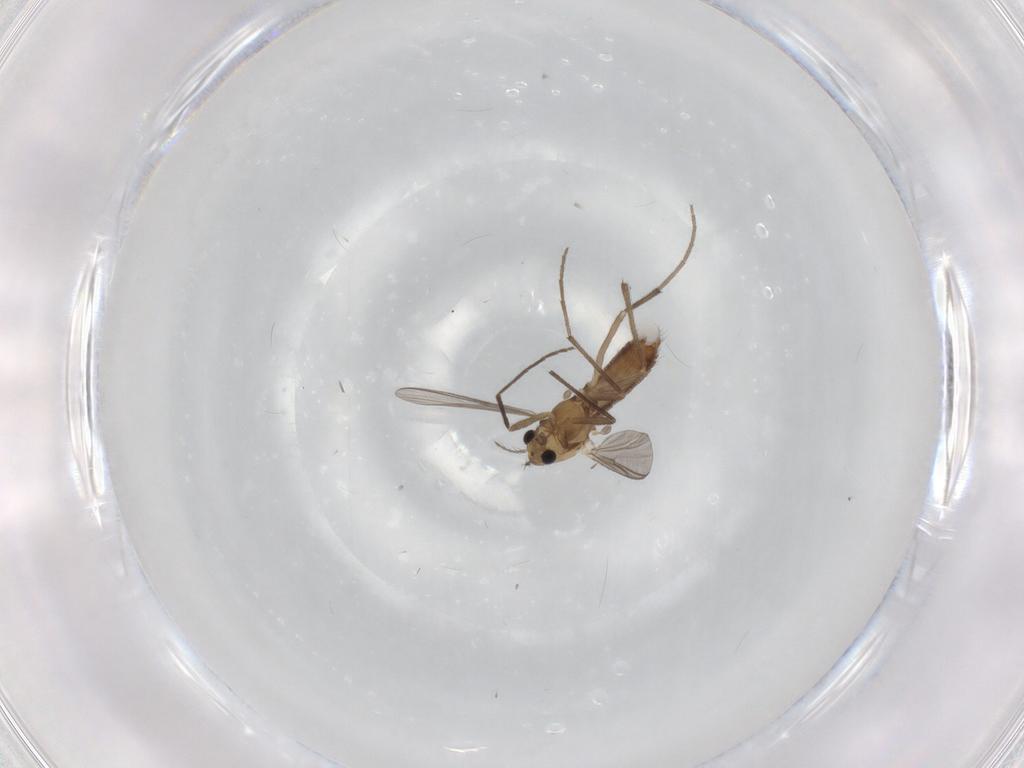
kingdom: Animalia
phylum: Arthropoda
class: Insecta
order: Diptera
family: Chironomidae
